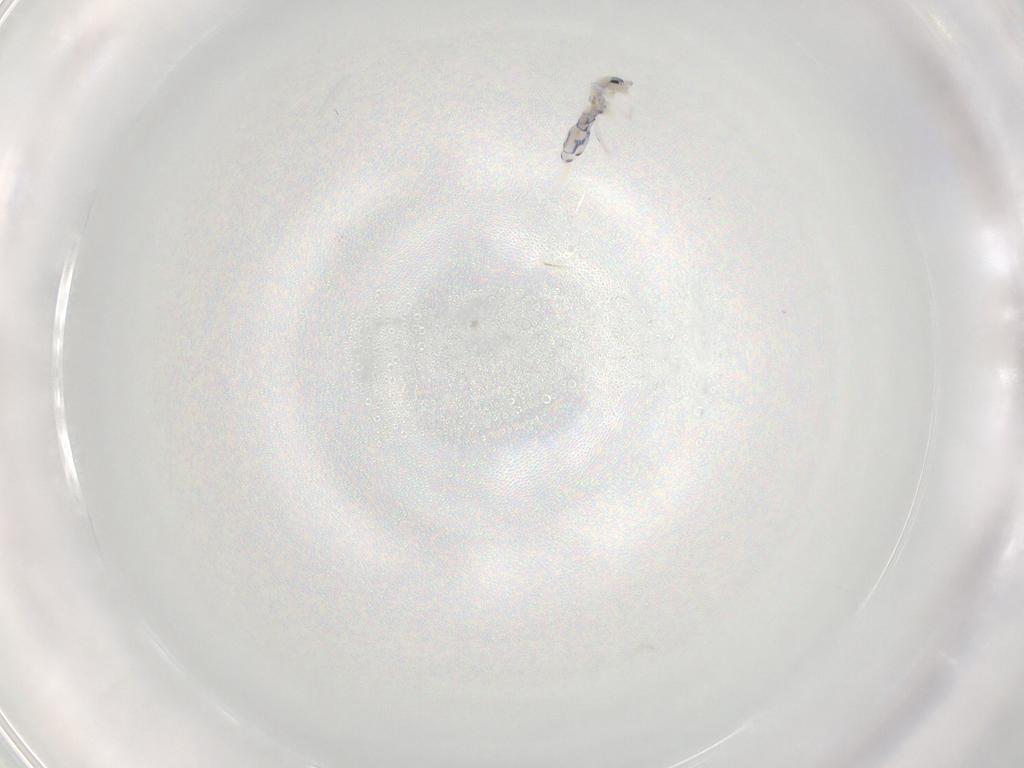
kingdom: Animalia
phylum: Arthropoda
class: Collembola
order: Entomobryomorpha
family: Entomobryidae
